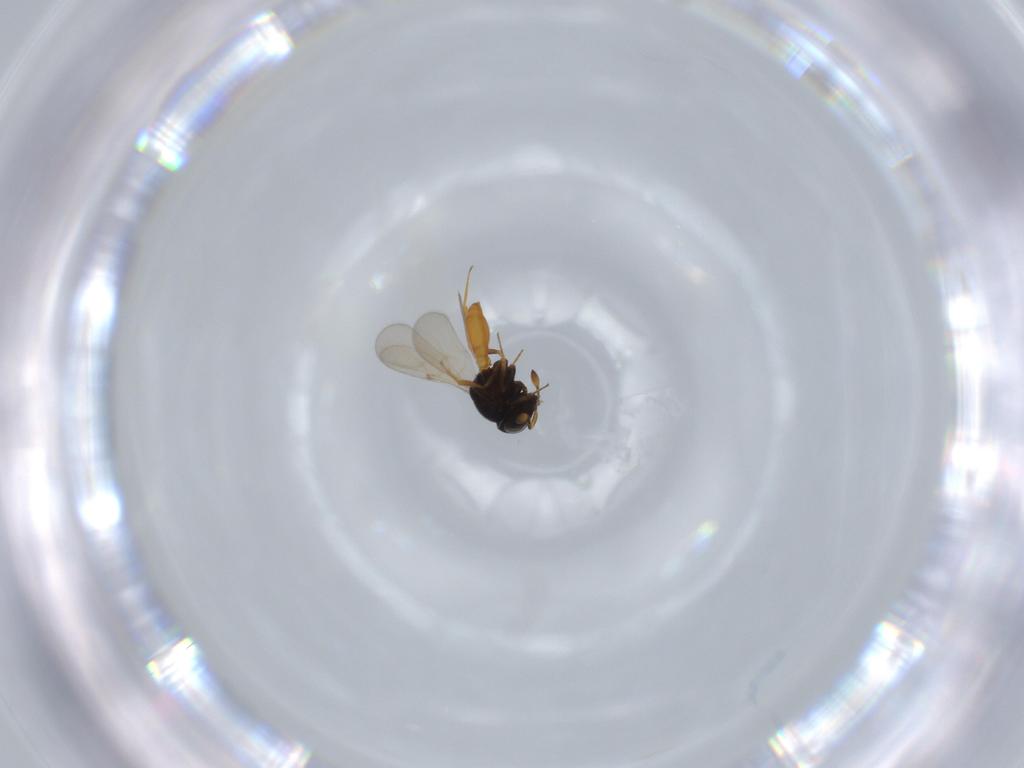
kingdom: Animalia
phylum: Arthropoda
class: Insecta
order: Hymenoptera
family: Scelionidae
